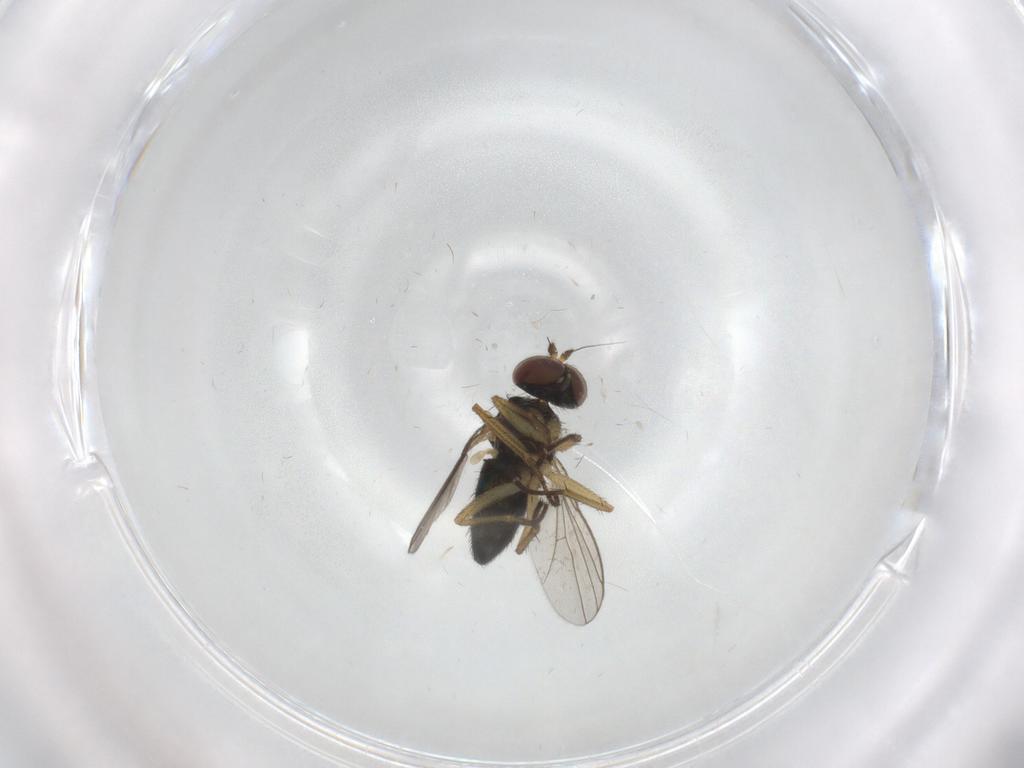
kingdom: Animalia
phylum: Arthropoda
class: Insecta
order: Diptera
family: Dolichopodidae
